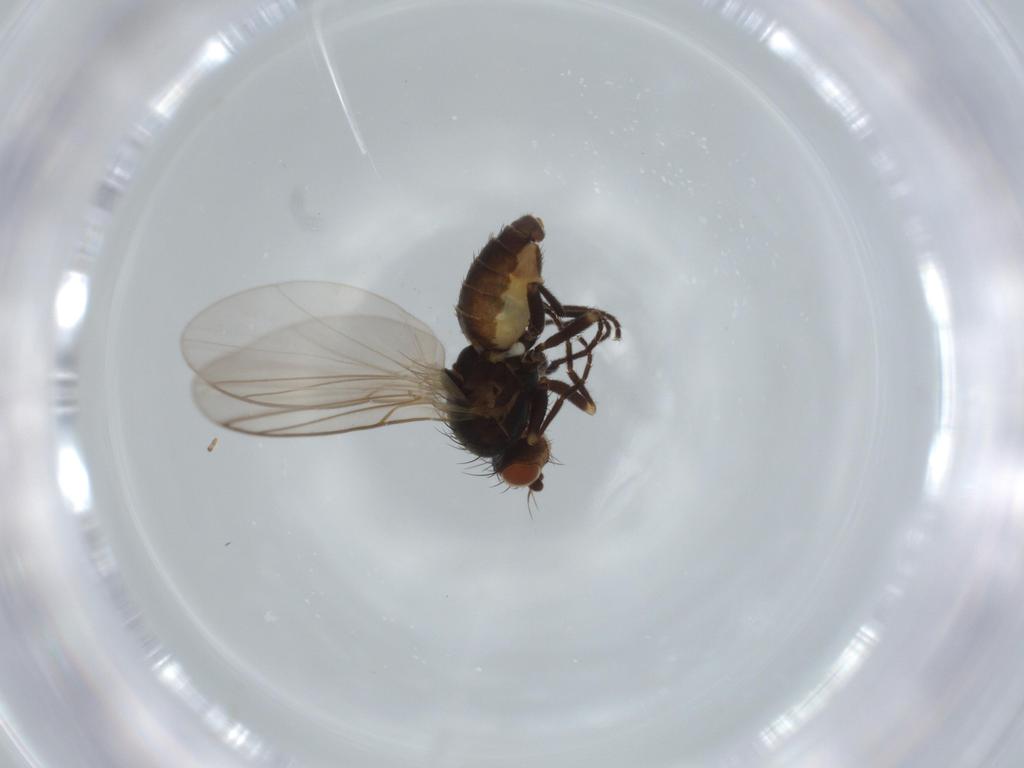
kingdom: Animalia
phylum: Arthropoda
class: Insecta
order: Diptera
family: Agromyzidae
